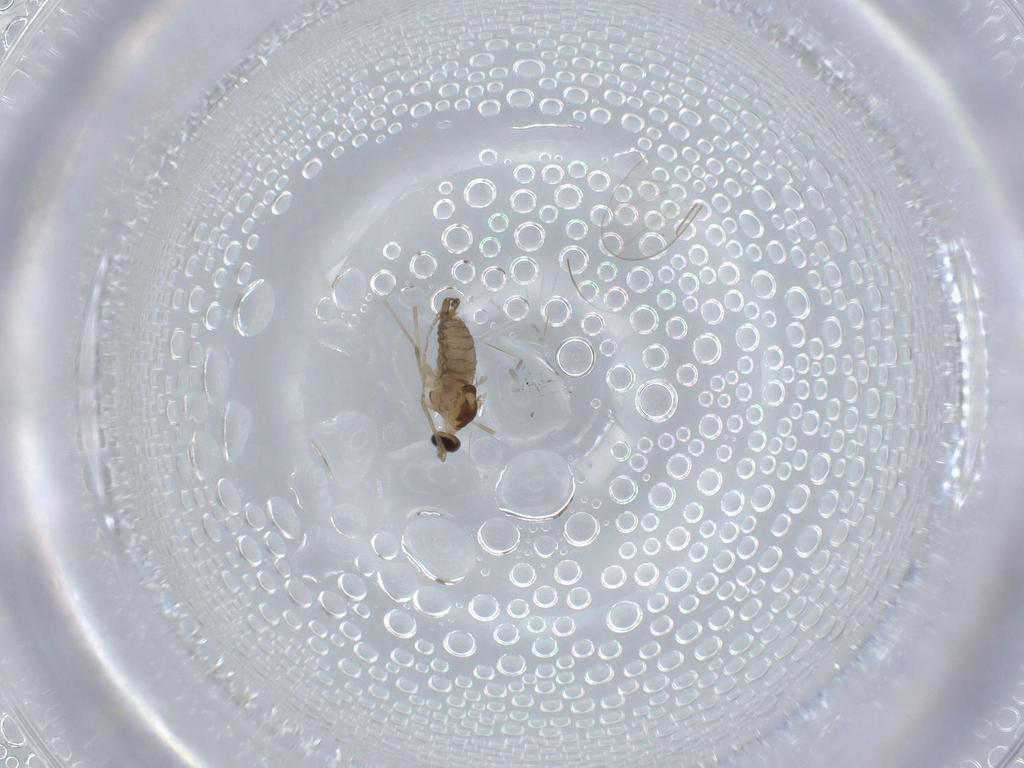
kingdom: Animalia
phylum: Arthropoda
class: Insecta
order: Diptera
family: Cecidomyiidae
